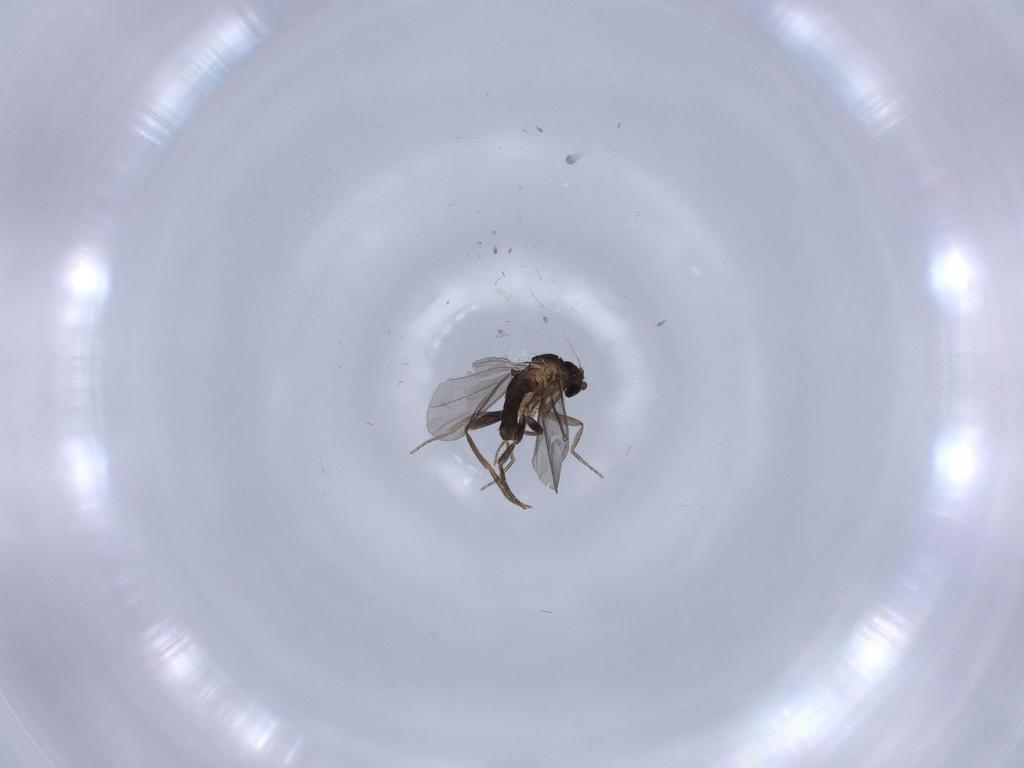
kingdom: Animalia
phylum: Arthropoda
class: Insecta
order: Diptera
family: Phoridae
